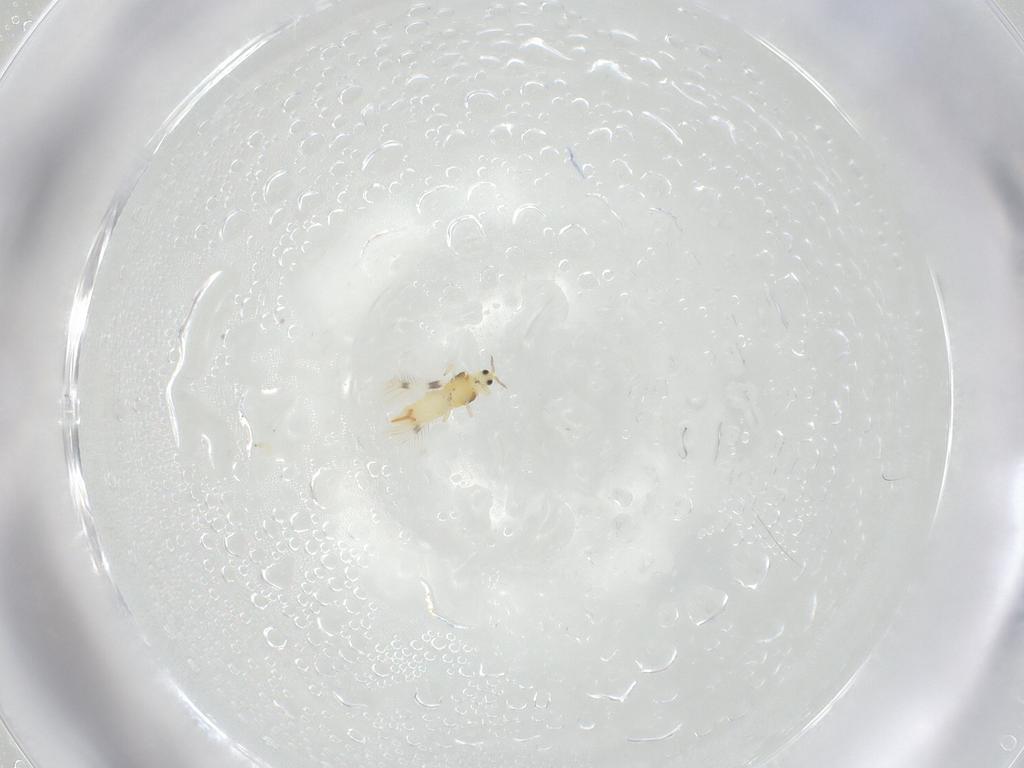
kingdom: Animalia
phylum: Arthropoda
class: Insecta
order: Thysanoptera
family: Thripidae
